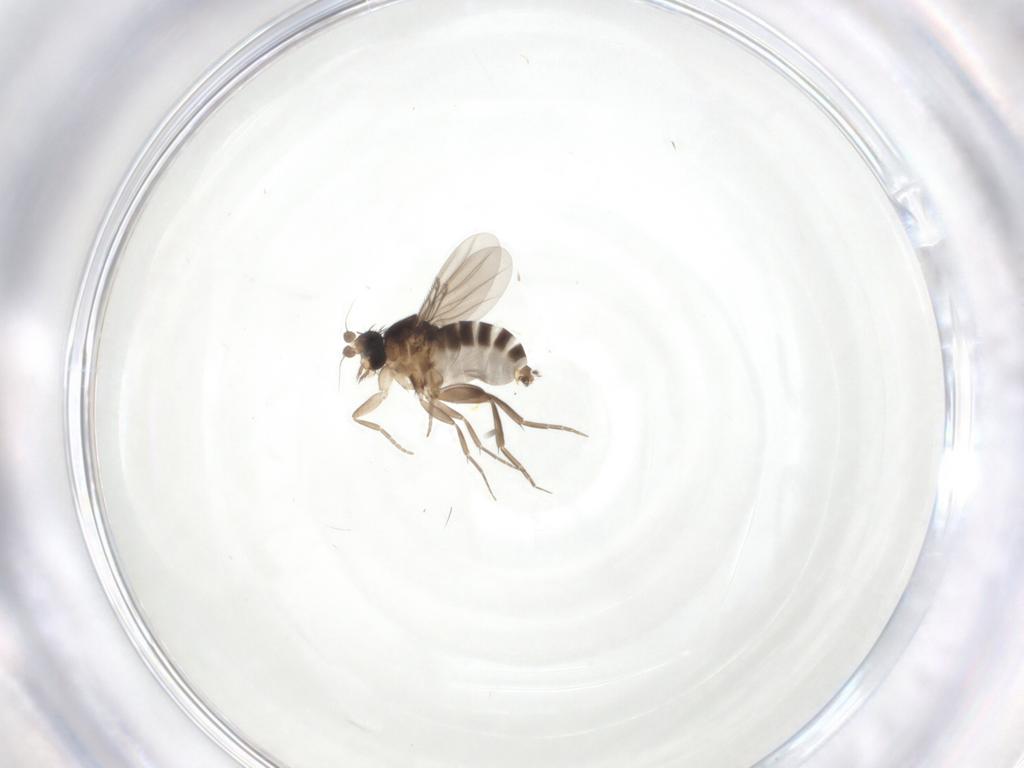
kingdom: Animalia
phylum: Arthropoda
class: Insecta
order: Diptera
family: Phoridae
